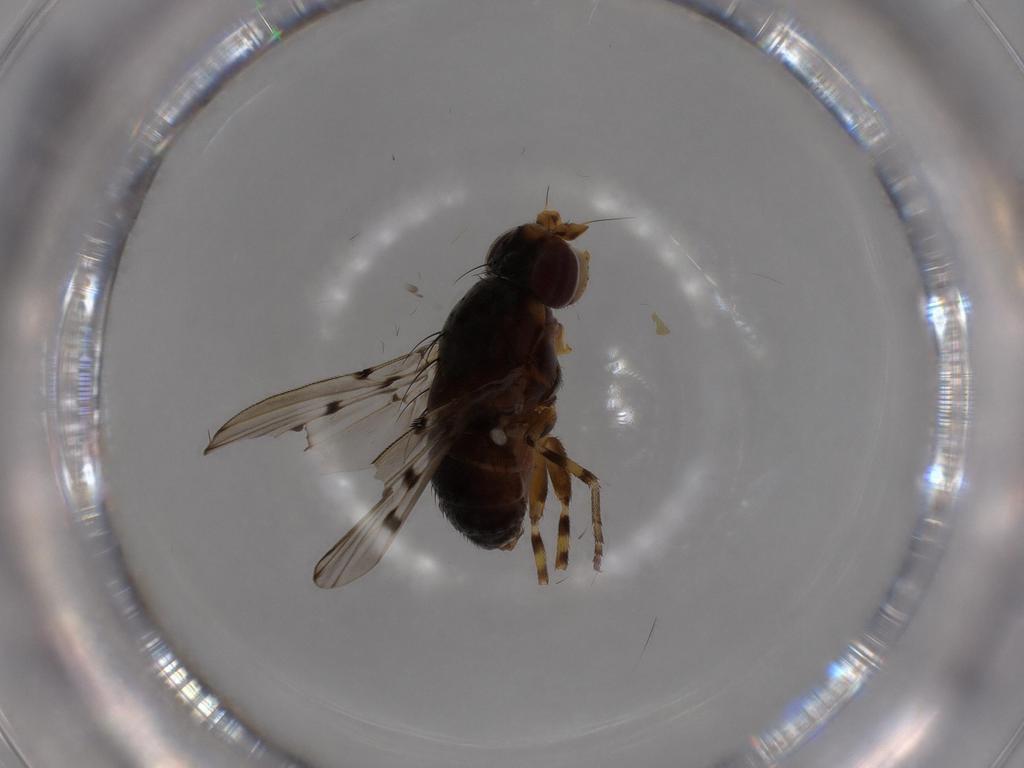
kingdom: Animalia
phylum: Arthropoda
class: Insecta
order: Diptera
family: Odiniidae
